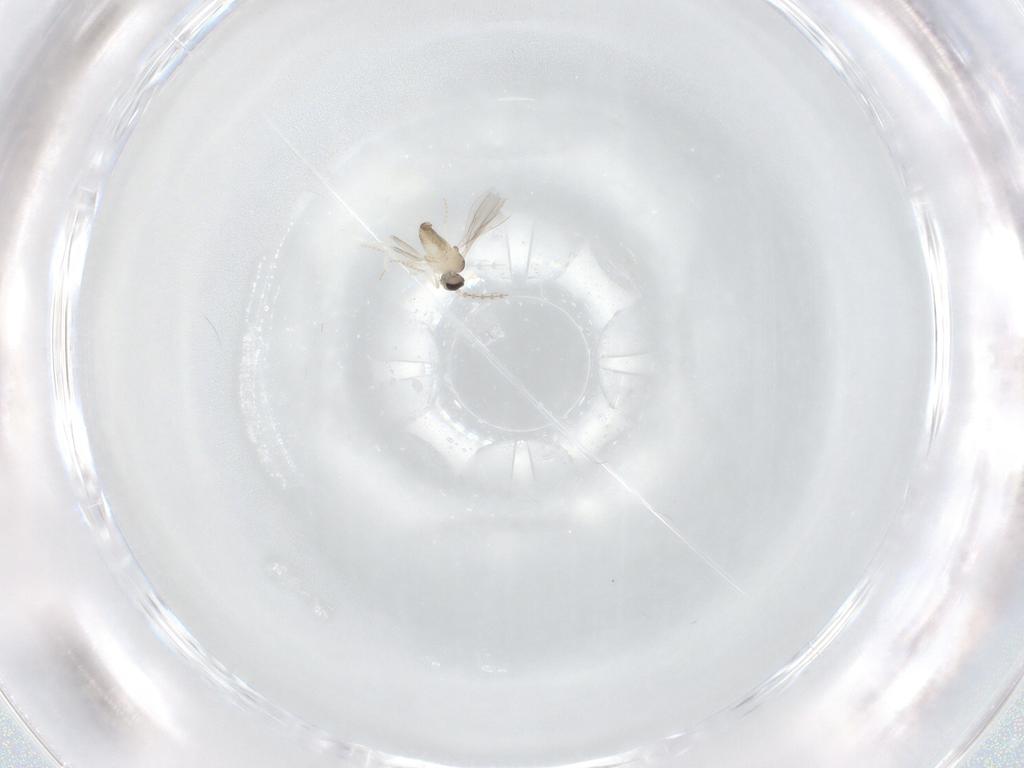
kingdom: Animalia
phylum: Arthropoda
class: Insecta
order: Diptera
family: Cecidomyiidae
